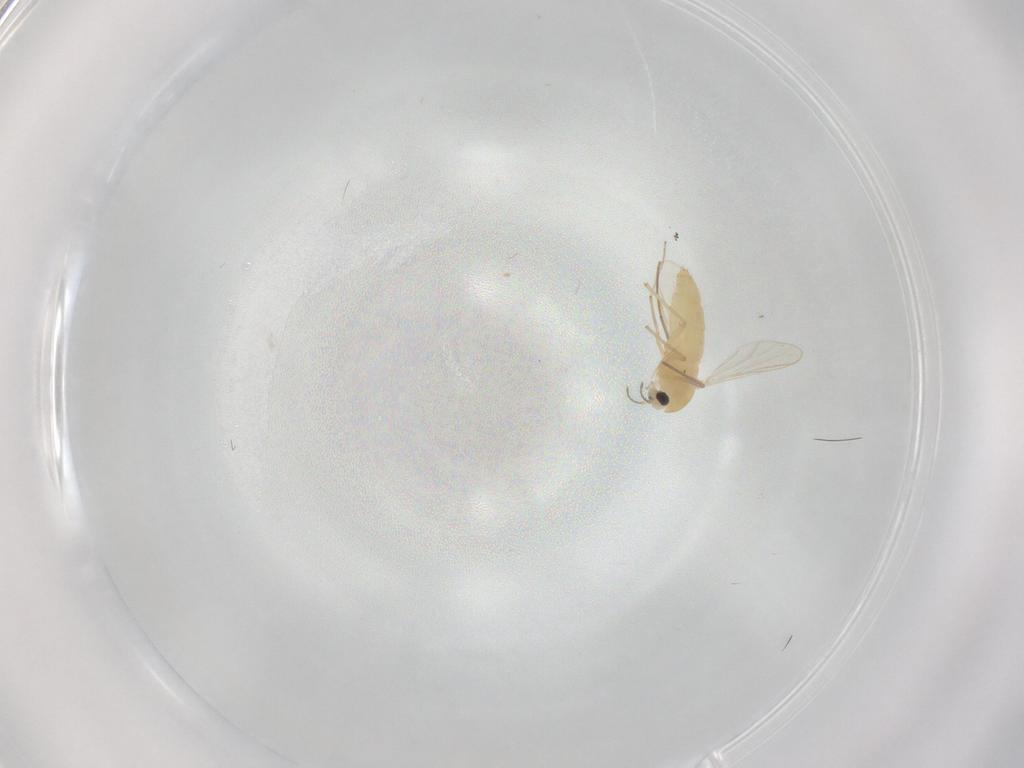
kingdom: Animalia
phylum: Arthropoda
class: Insecta
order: Diptera
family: Chironomidae
